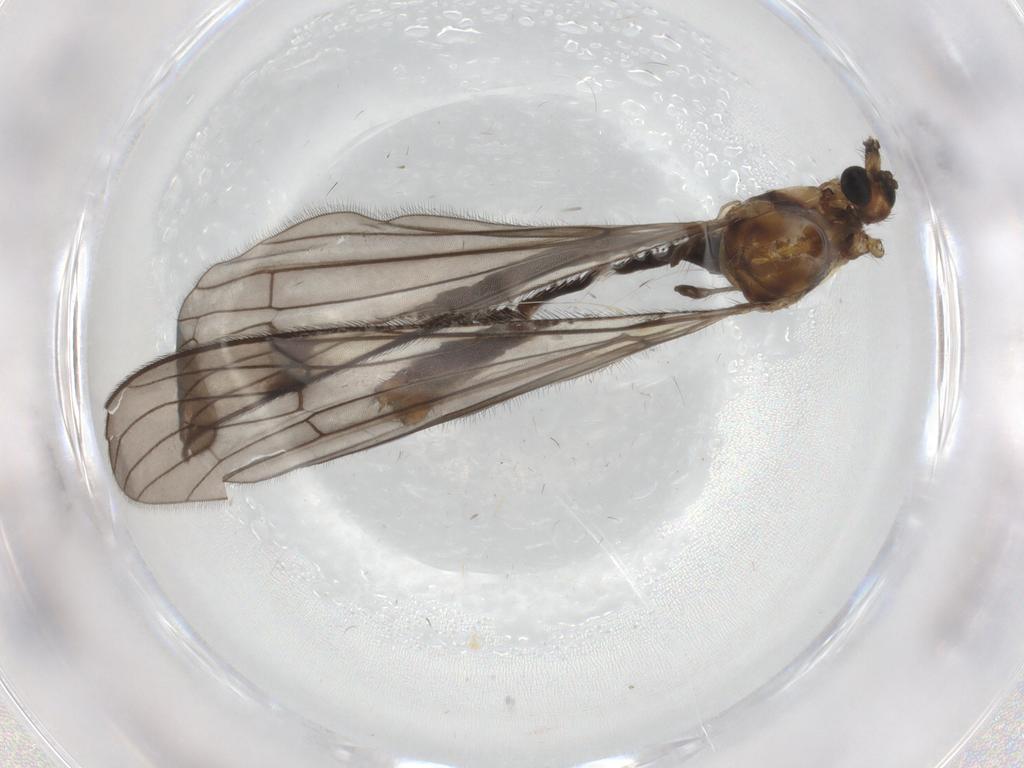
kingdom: Animalia
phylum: Arthropoda
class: Insecta
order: Diptera
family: Limoniidae
